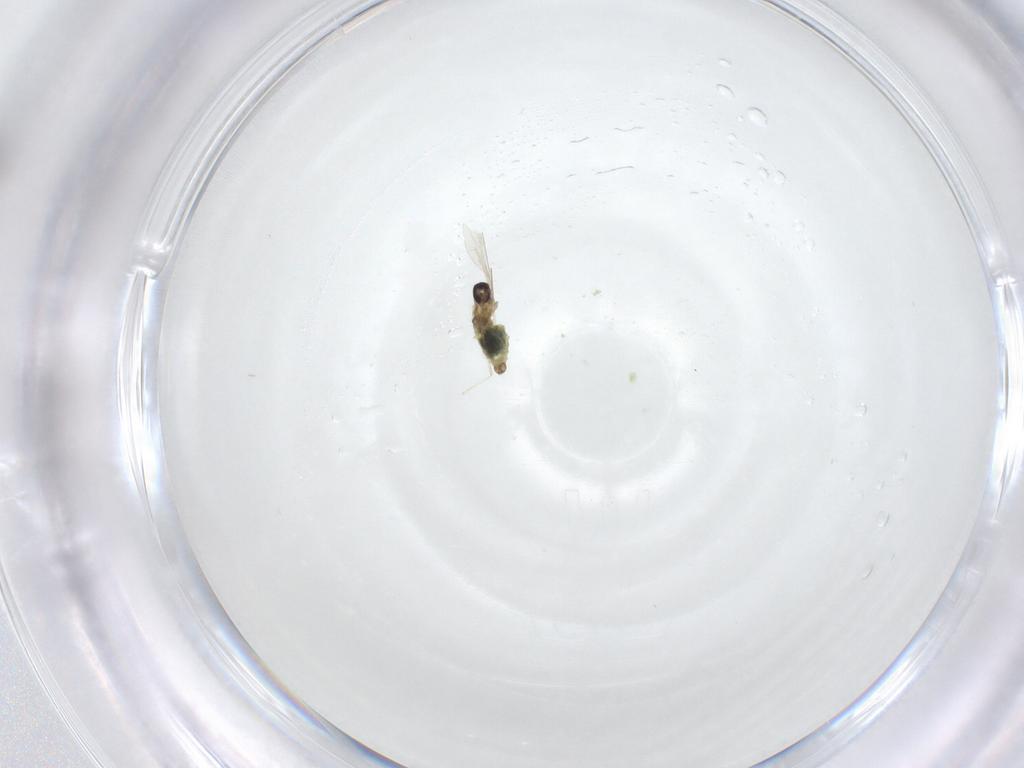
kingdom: Animalia
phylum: Arthropoda
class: Insecta
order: Diptera
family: Cecidomyiidae
